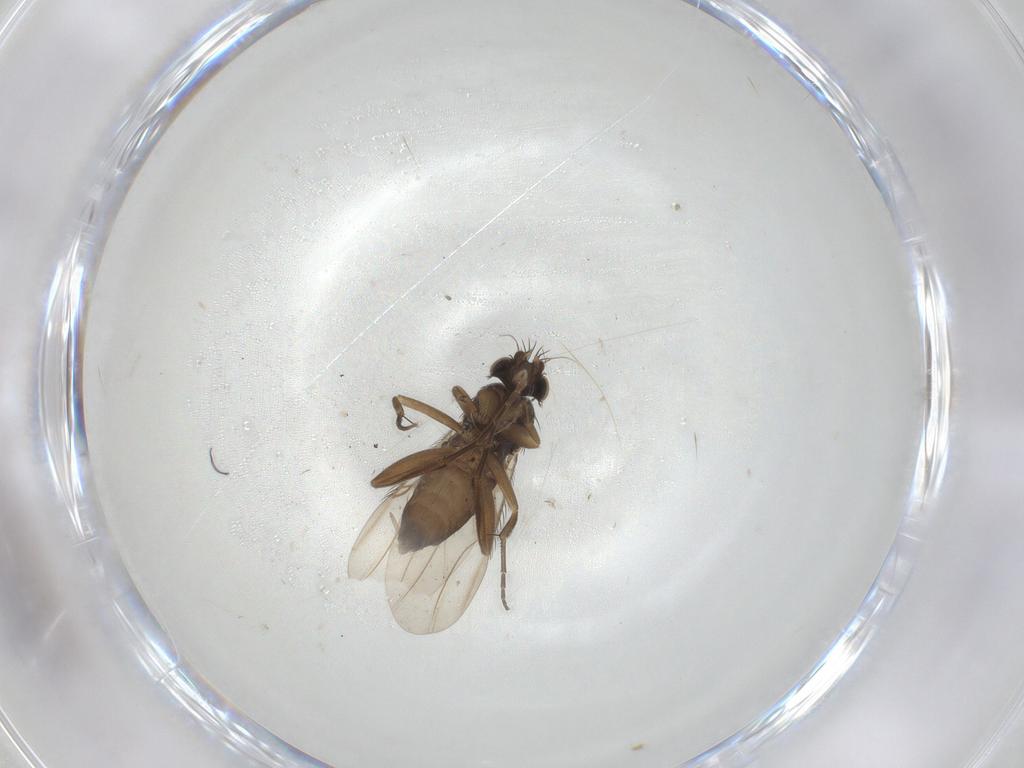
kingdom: Animalia
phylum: Arthropoda
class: Insecta
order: Diptera
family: Phoridae
